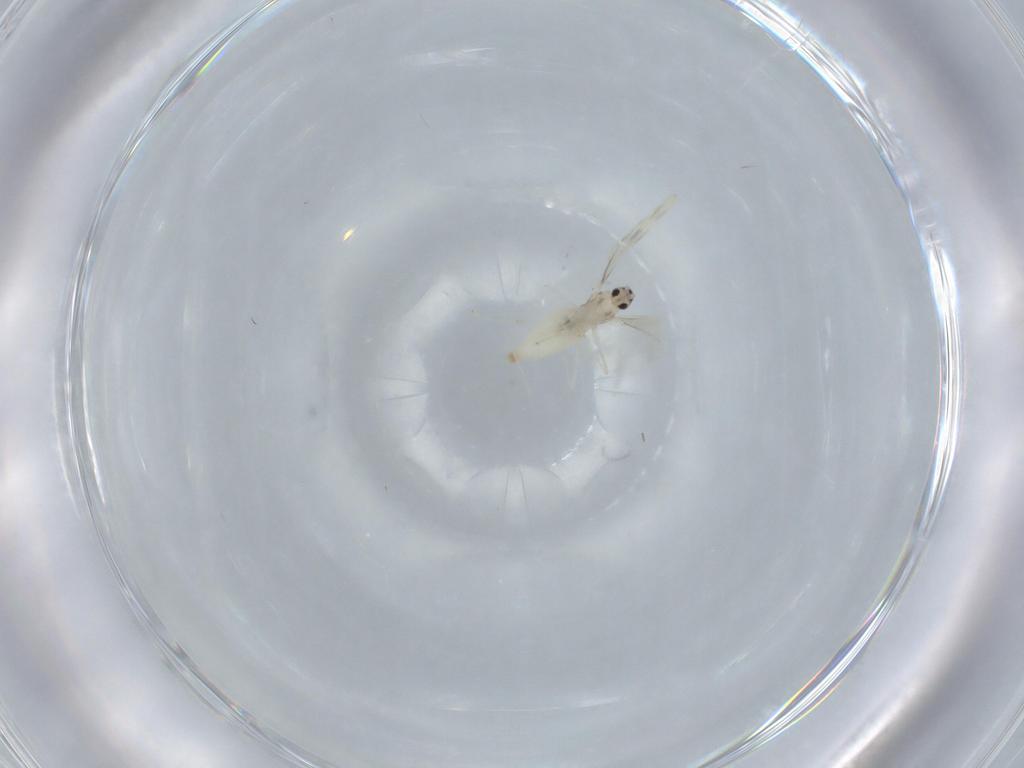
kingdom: Animalia
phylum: Arthropoda
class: Insecta
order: Diptera
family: Cecidomyiidae
